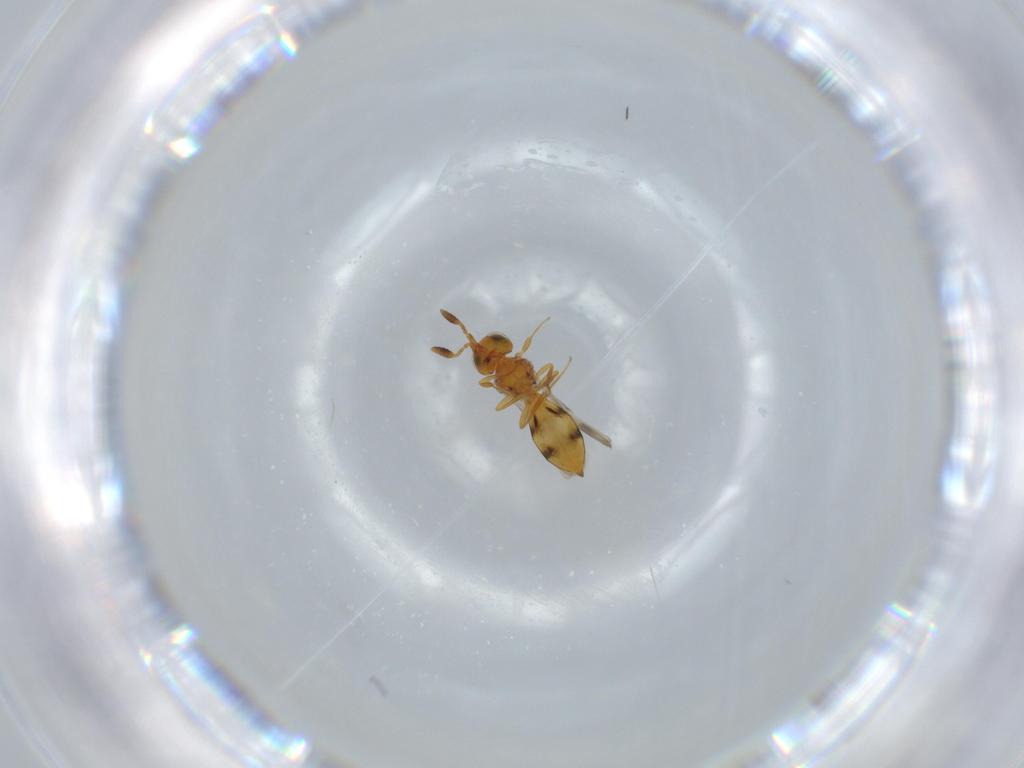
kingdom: Animalia
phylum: Arthropoda
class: Insecta
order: Hymenoptera
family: Scelionidae
